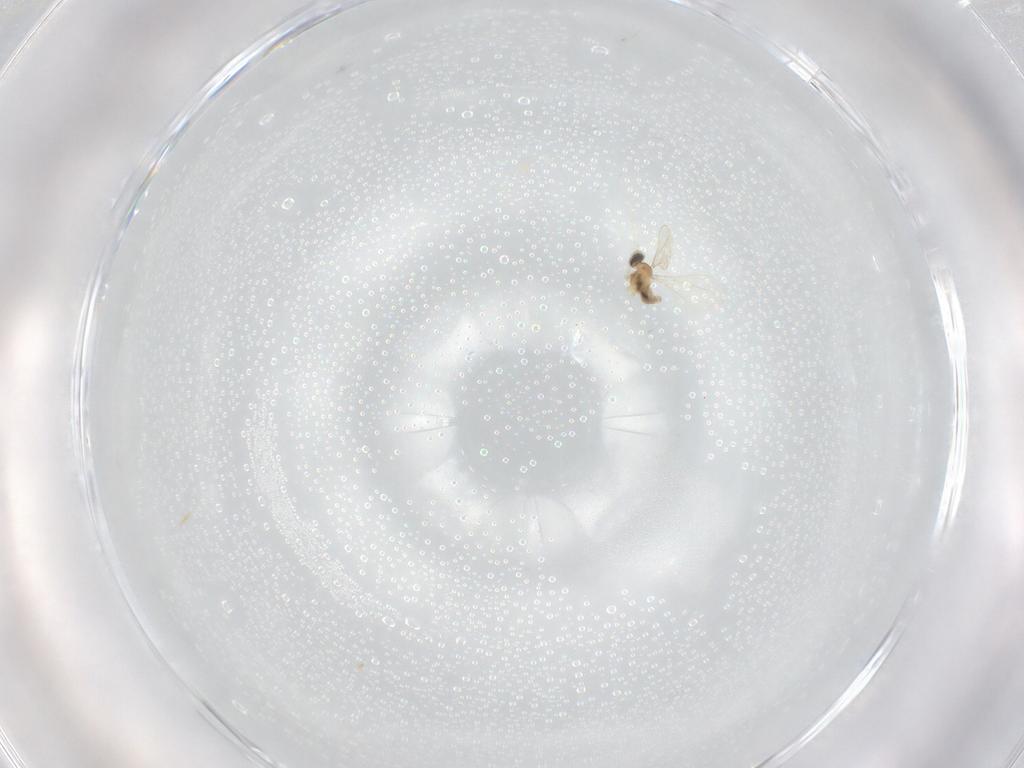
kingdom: Animalia
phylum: Arthropoda
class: Insecta
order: Diptera
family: Cecidomyiidae
